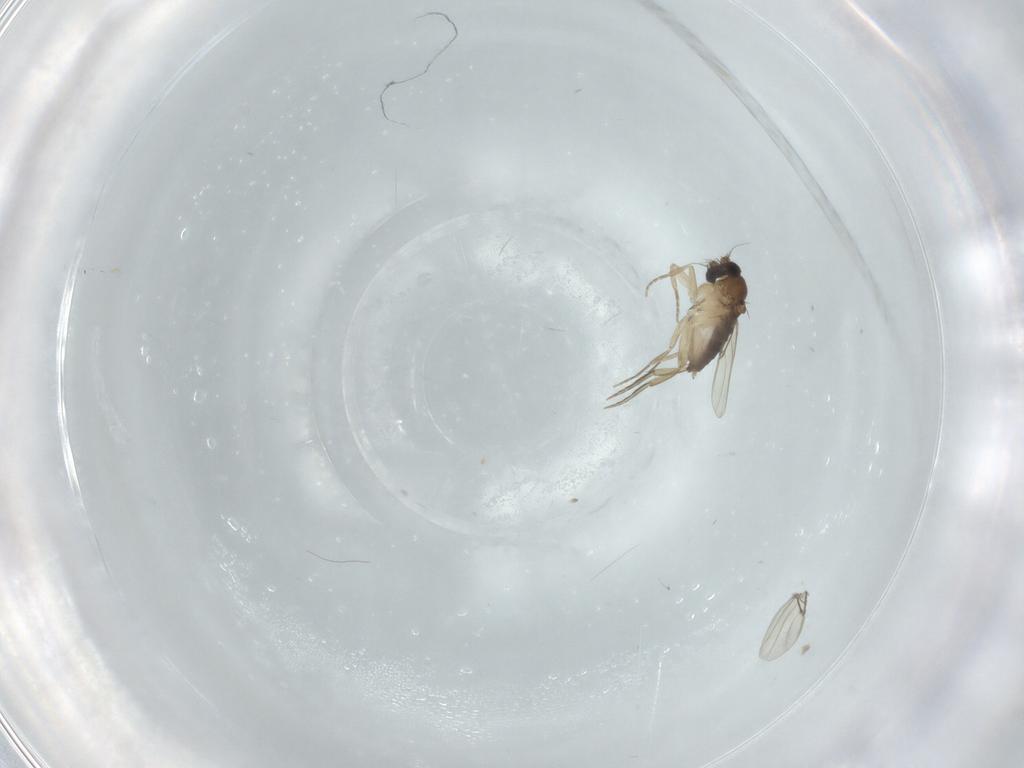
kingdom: Animalia
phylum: Arthropoda
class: Insecta
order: Diptera
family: Phoridae
